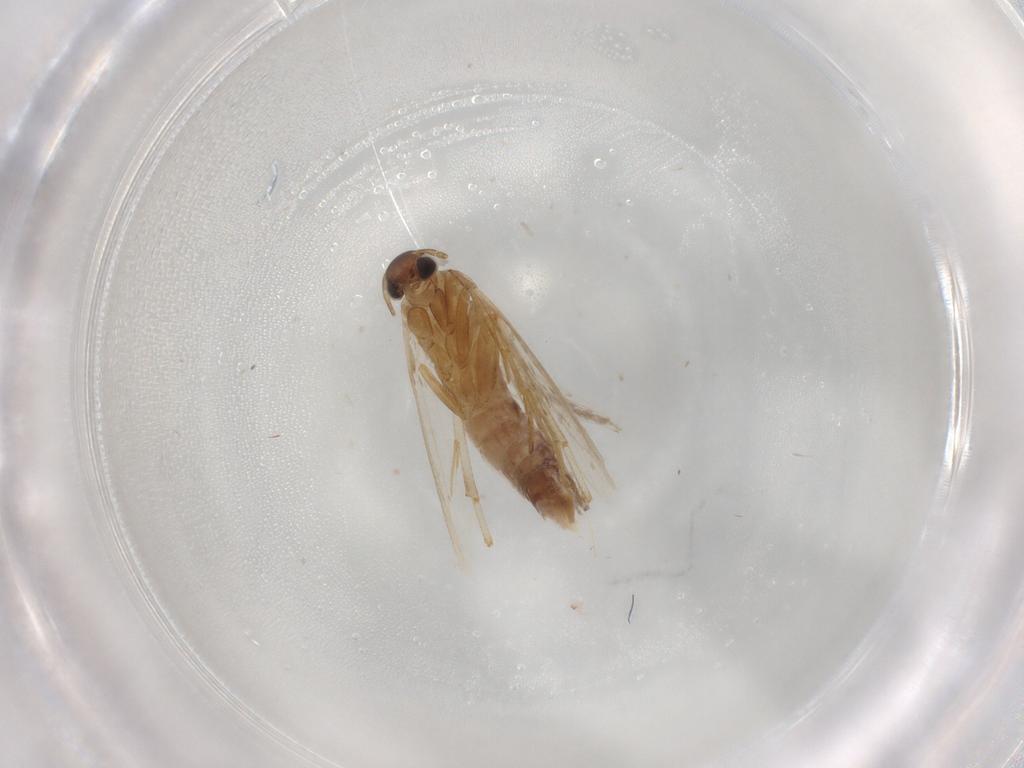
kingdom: Animalia
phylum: Arthropoda
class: Insecta
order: Lepidoptera
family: Gelechiidae
